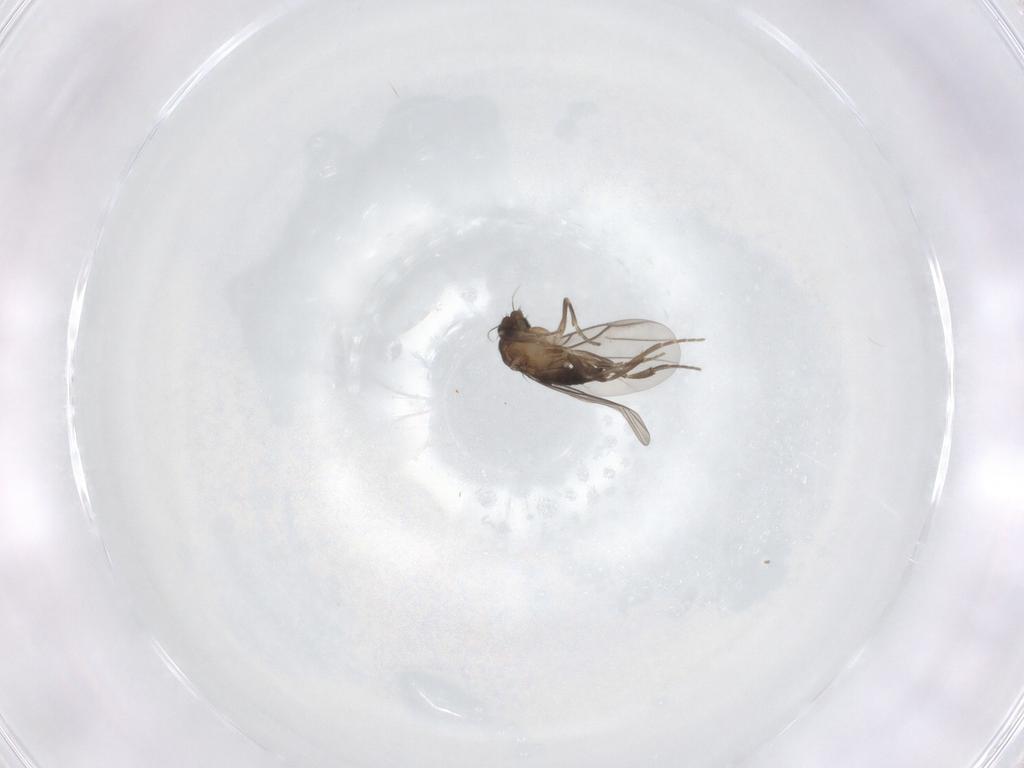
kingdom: Animalia
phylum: Arthropoda
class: Insecta
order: Diptera
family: Phoridae
